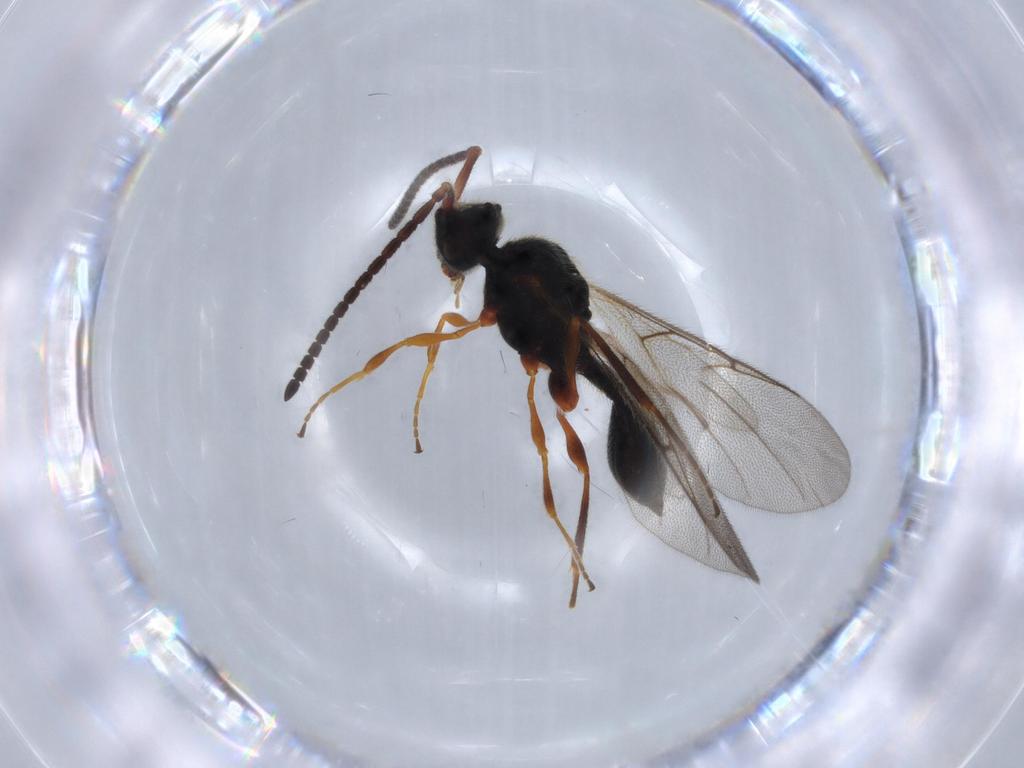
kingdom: Animalia
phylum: Arthropoda
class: Insecta
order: Hymenoptera
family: Diapriidae
